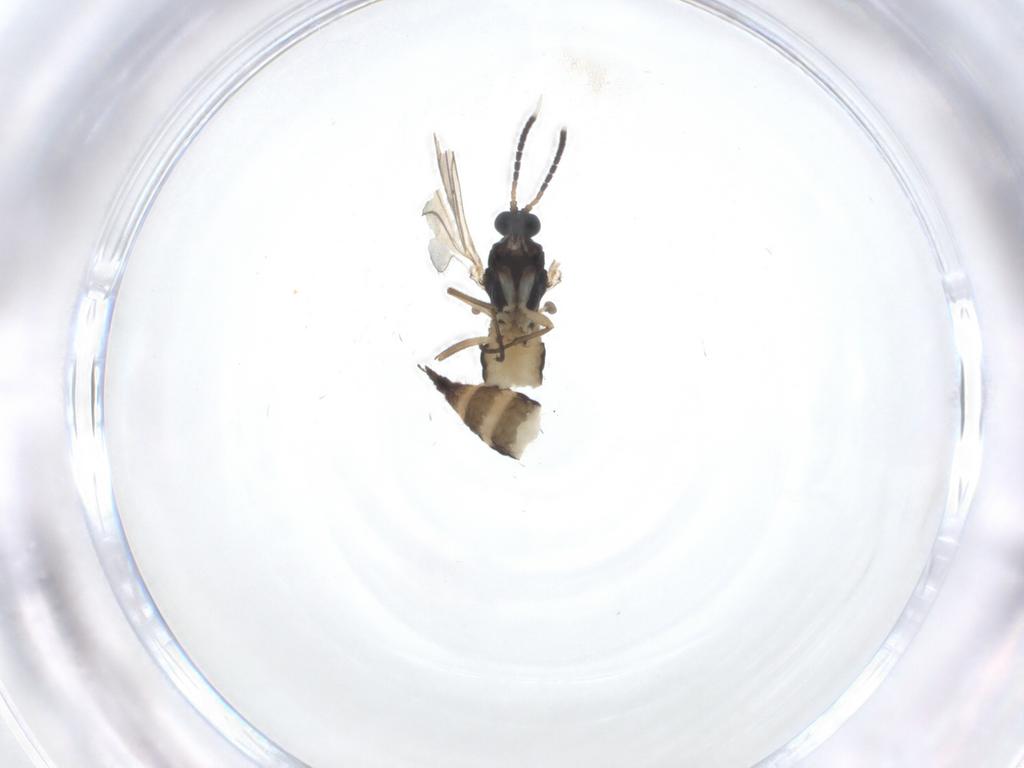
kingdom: Animalia
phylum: Arthropoda
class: Insecta
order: Diptera
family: Sciaridae
